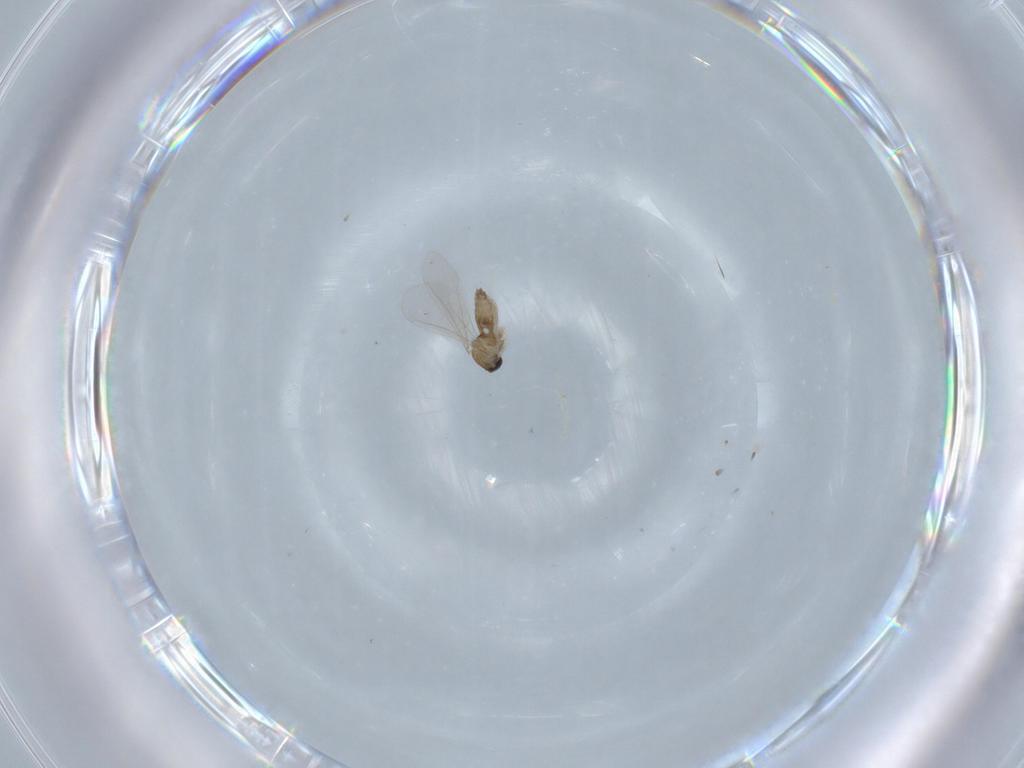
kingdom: Animalia
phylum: Arthropoda
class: Insecta
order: Diptera
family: Cecidomyiidae
